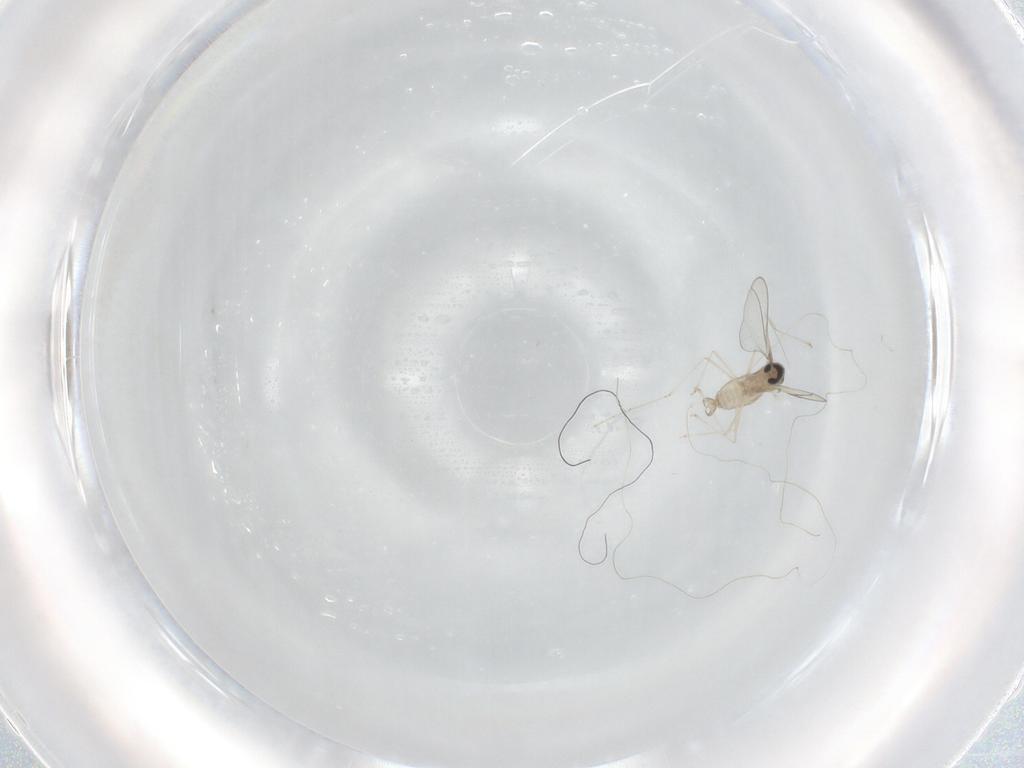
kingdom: Animalia
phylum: Arthropoda
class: Insecta
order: Diptera
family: Cecidomyiidae
